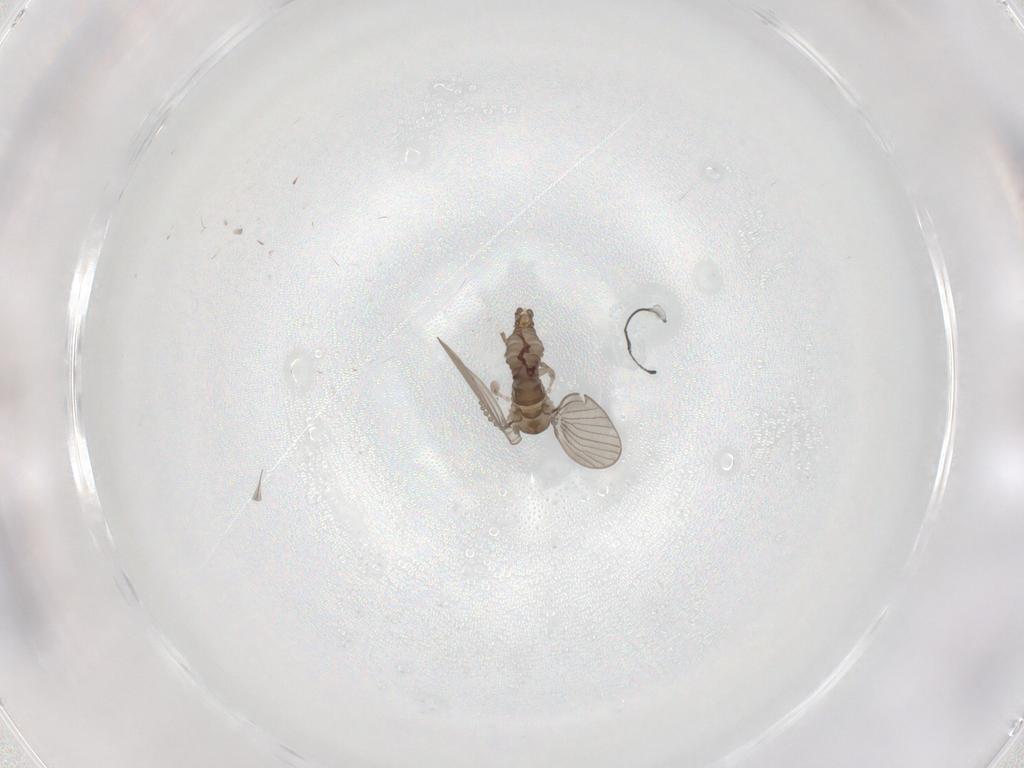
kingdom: Animalia
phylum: Arthropoda
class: Insecta
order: Diptera
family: Psychodidae
